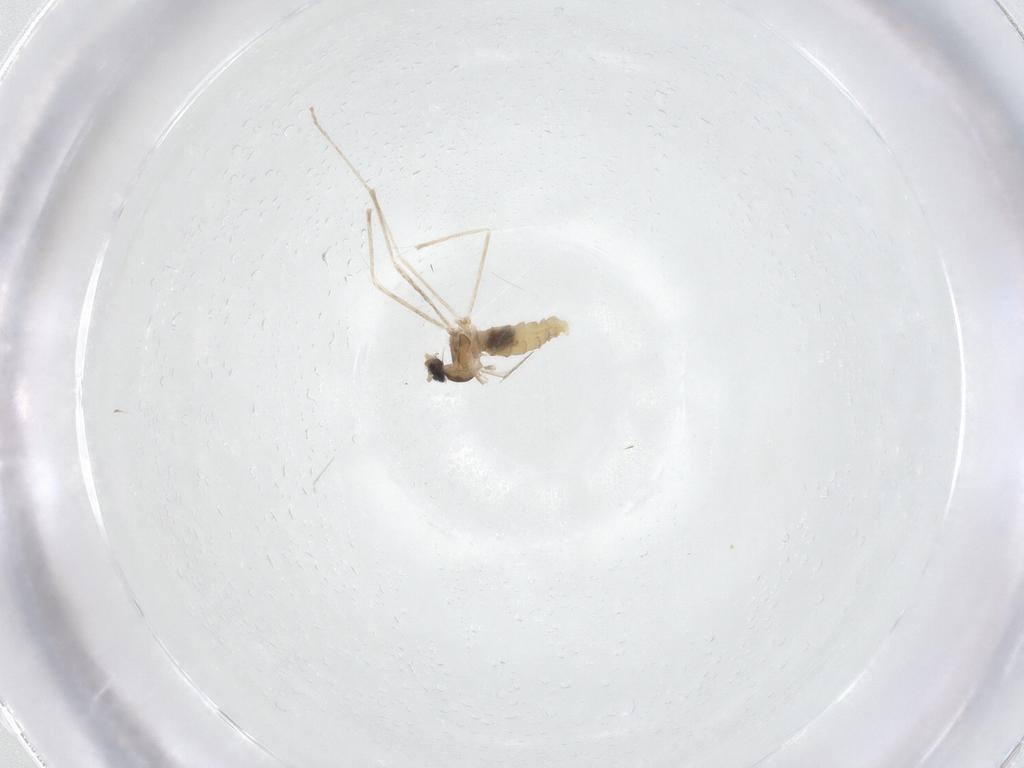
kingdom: Animalia
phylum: Arthropoda
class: Insecta
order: Diptera
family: Cecidomyiidae
